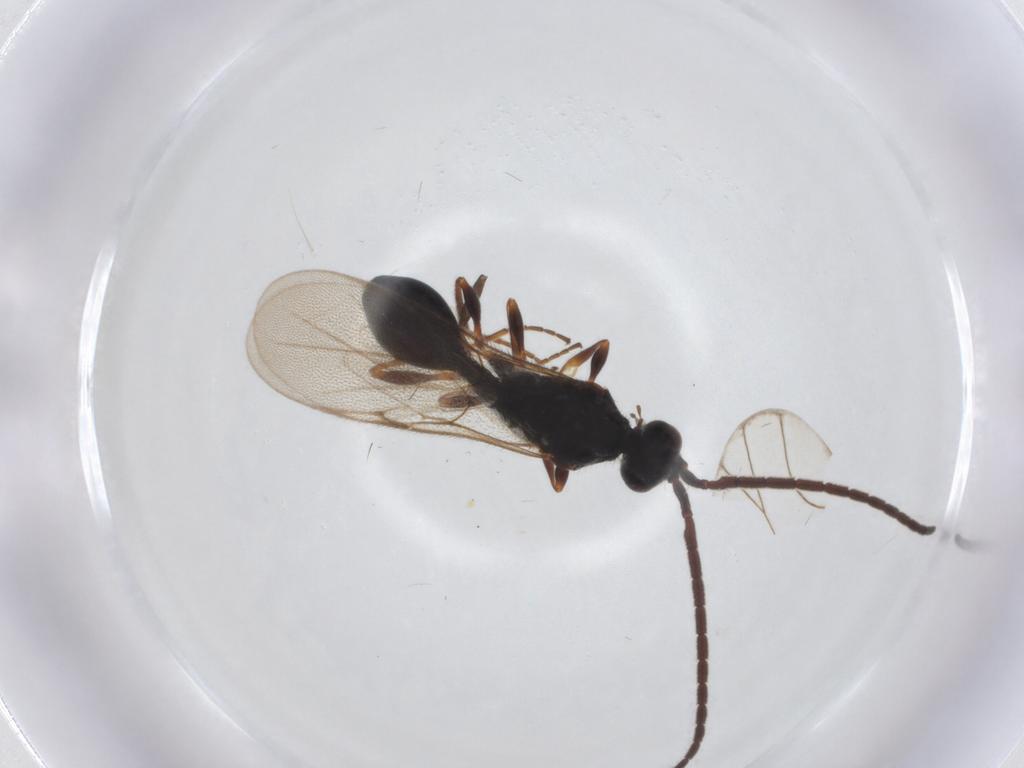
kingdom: Animalia
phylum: Arthropoda
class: Insecta
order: Hymenoptera
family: Diapriidae
